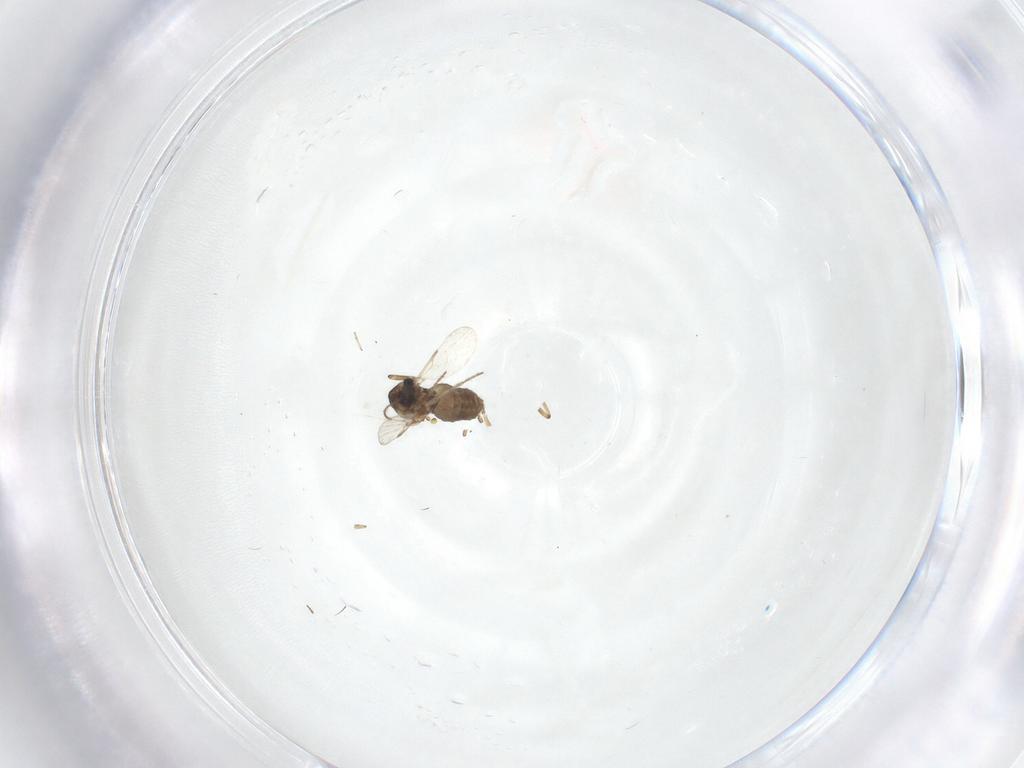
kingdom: Animalia
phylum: Arthropoda
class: Insecta
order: Diptera
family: Ceratopogonidae
